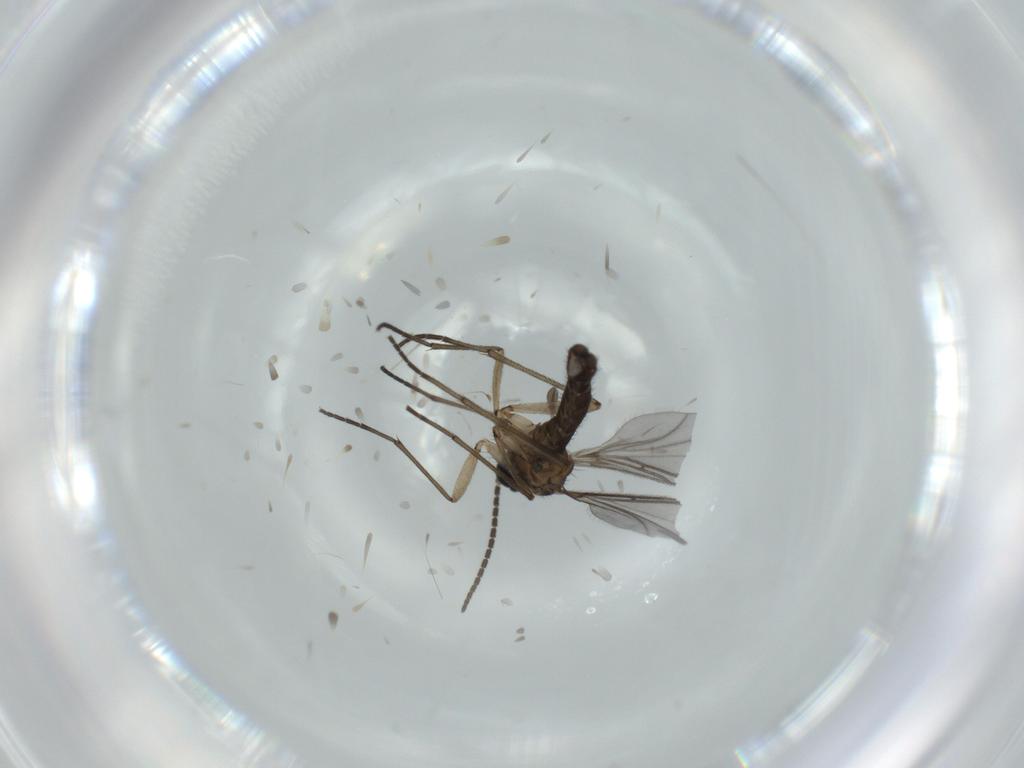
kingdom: Animalia
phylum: Arthropoda
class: Insecta
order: Diptera
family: Sciaridae
